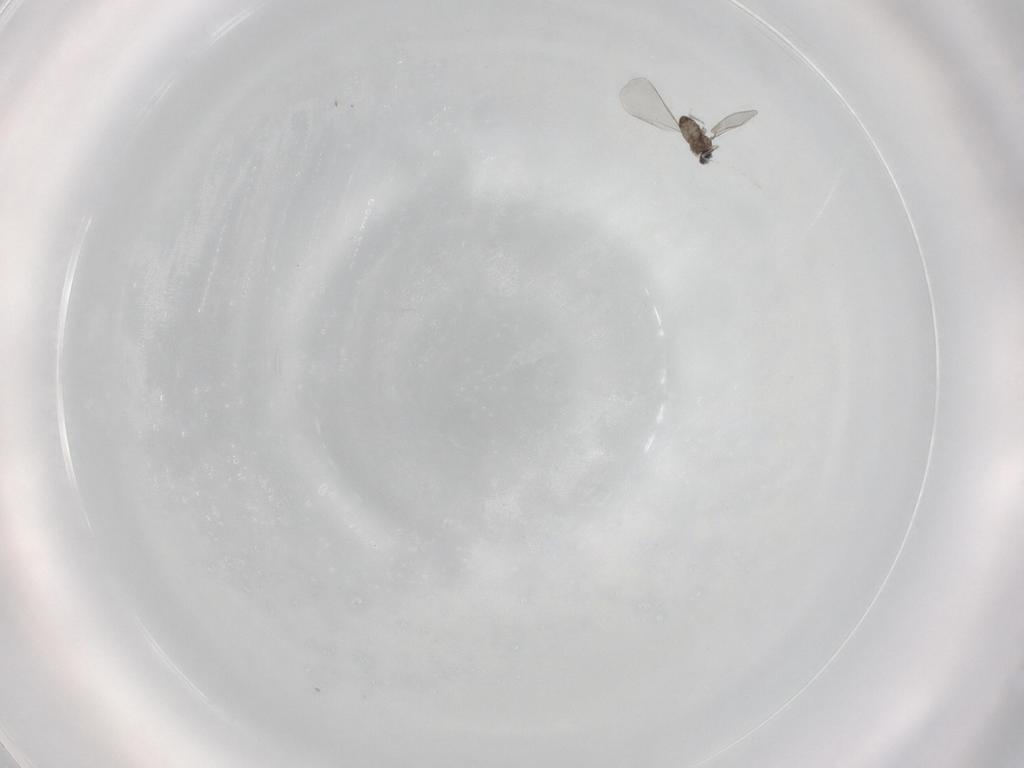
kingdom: Animalia
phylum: Arthropoda
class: Insecta
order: Diptera
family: Cecidomyiidae
